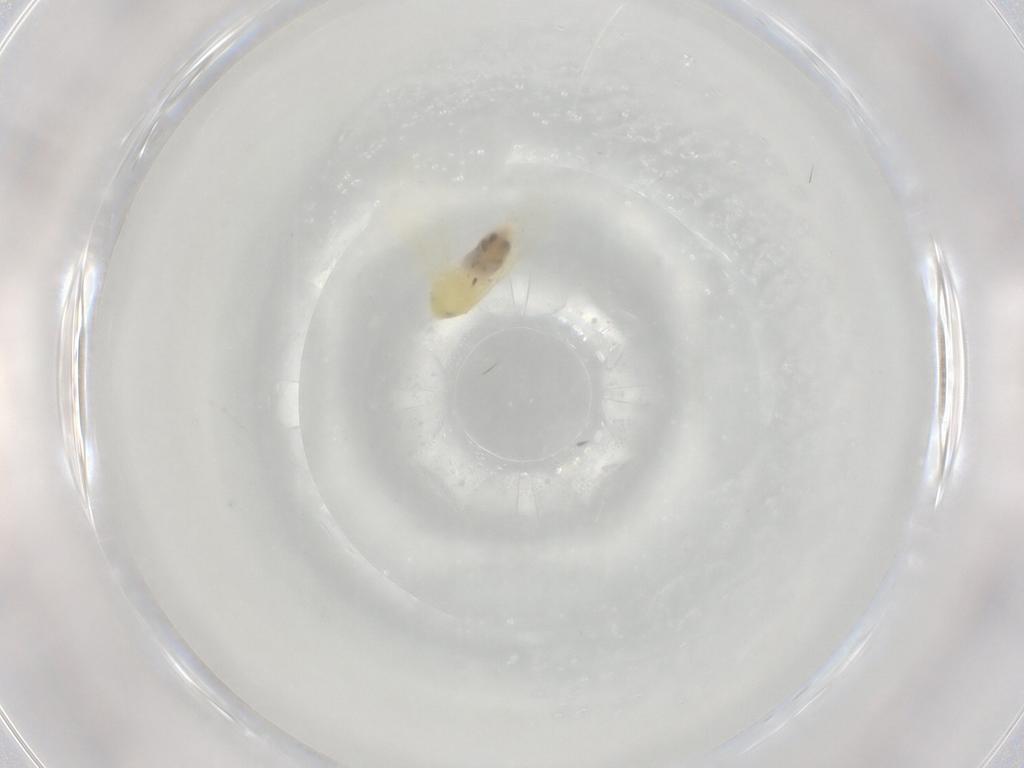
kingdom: Animalia
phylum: Arthropoda
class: Insecta
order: Hemiptera
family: Aleyrodidae
